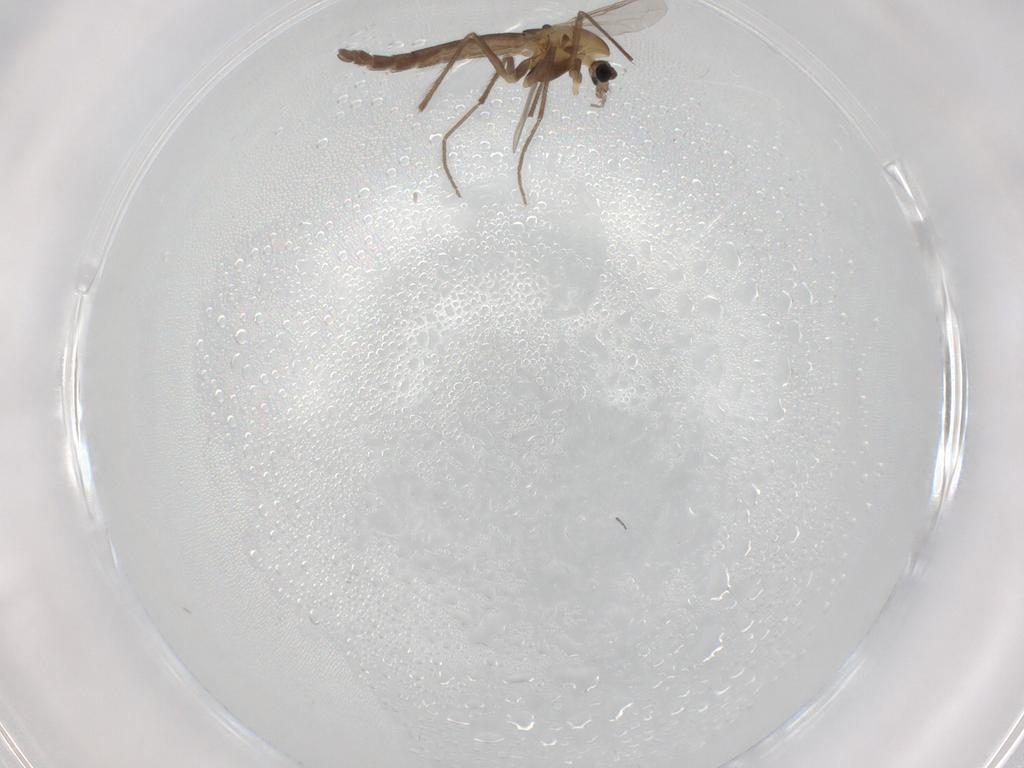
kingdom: Animalia
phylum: Arthropoda
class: Insecta
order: Diptera
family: Chironomidae
